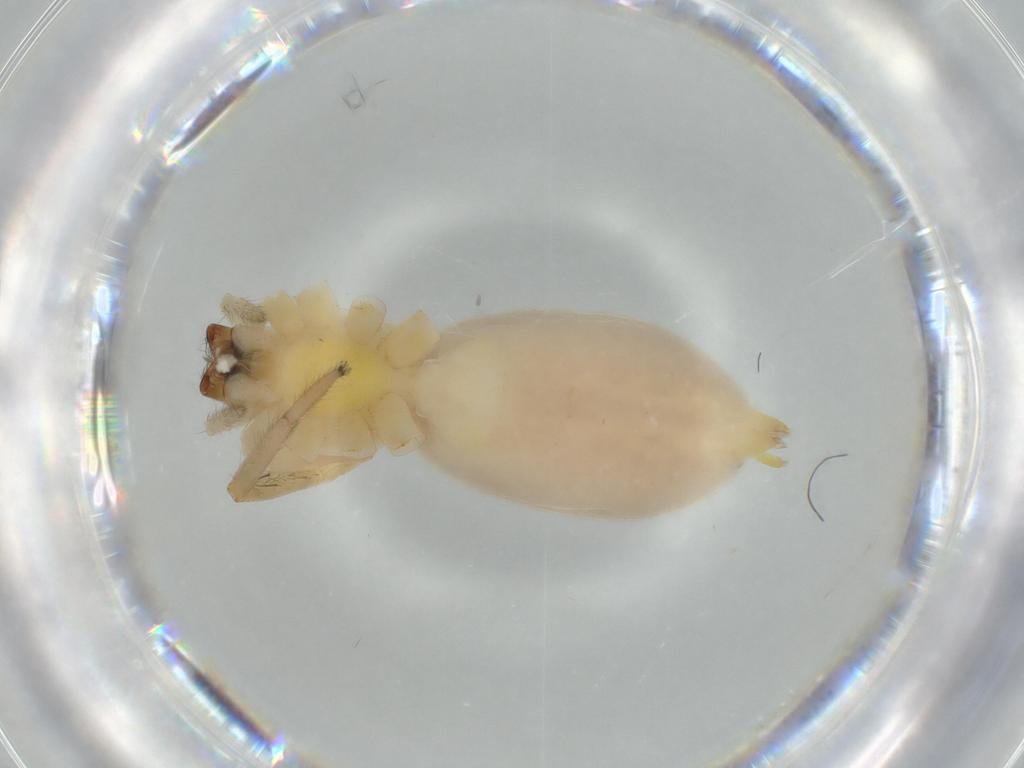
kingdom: Animalia
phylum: Arthropoda
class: Arachnida
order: Araneae
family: Anyphaenidae
